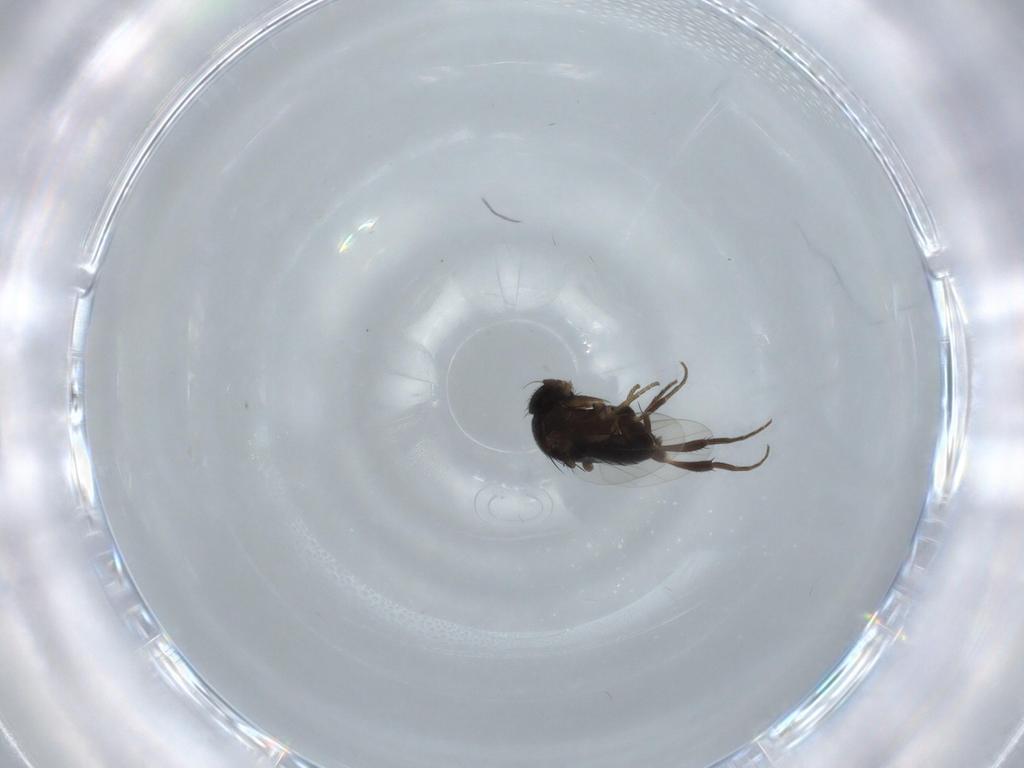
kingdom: Animalia
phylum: Arthropoda
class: Insecta
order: Diptera
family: Phoridae
